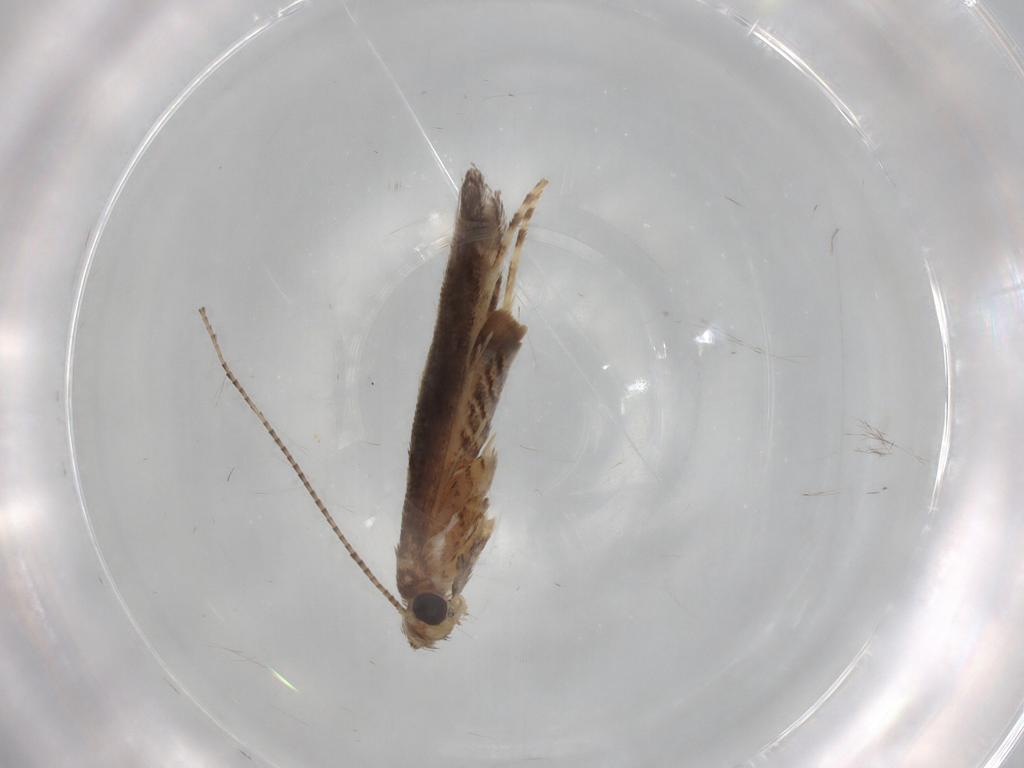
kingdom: Animalia
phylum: Arthropoda
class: Insecta
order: Lepidoptera
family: Gracillariidae
